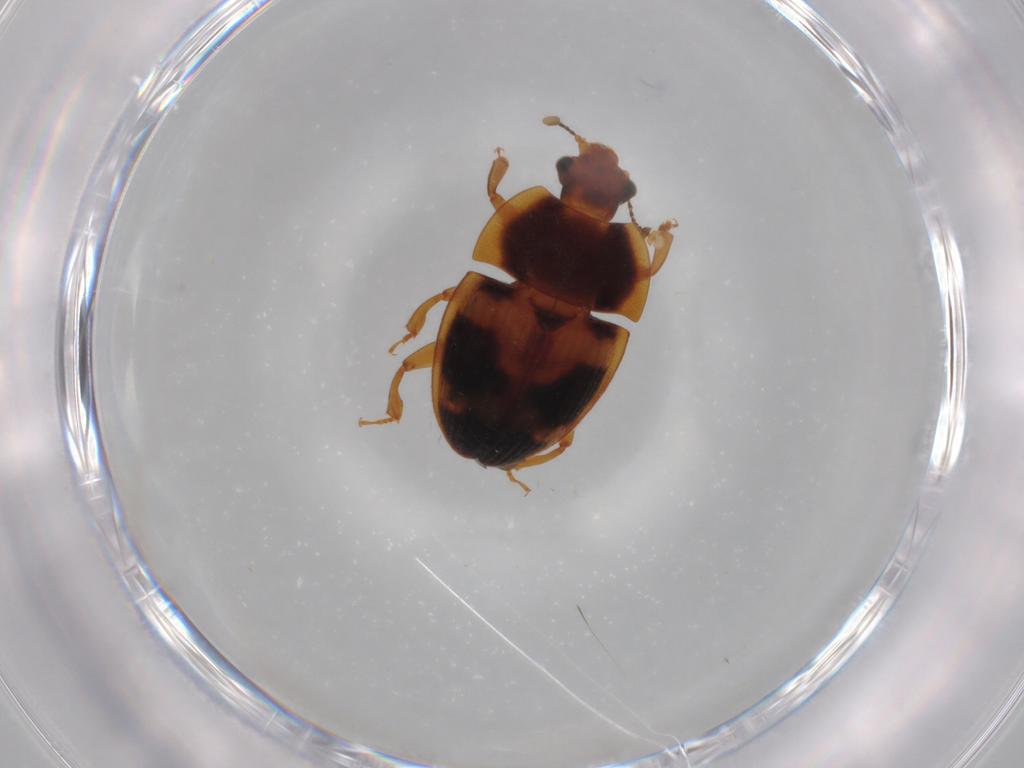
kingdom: Animalia
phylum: Arthropoda
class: Insecta
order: Coleoptera
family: Nitidulidae
